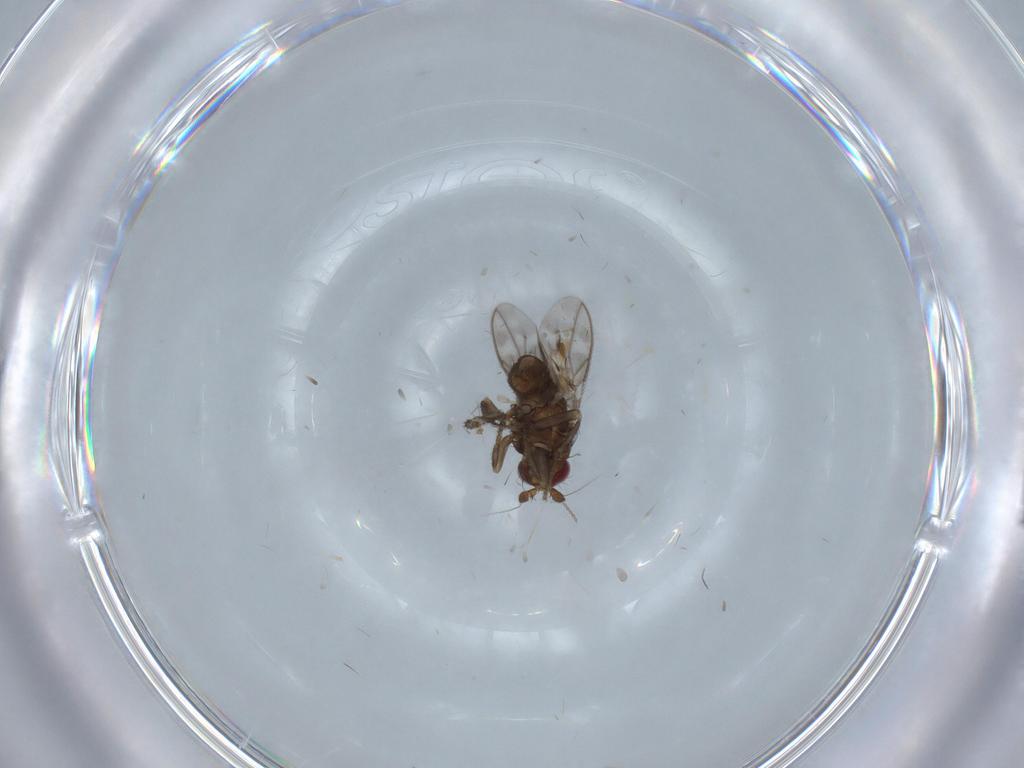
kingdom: Animalia
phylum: Arthropoda
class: Insecta
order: Diptera
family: Sphaeroceridae
